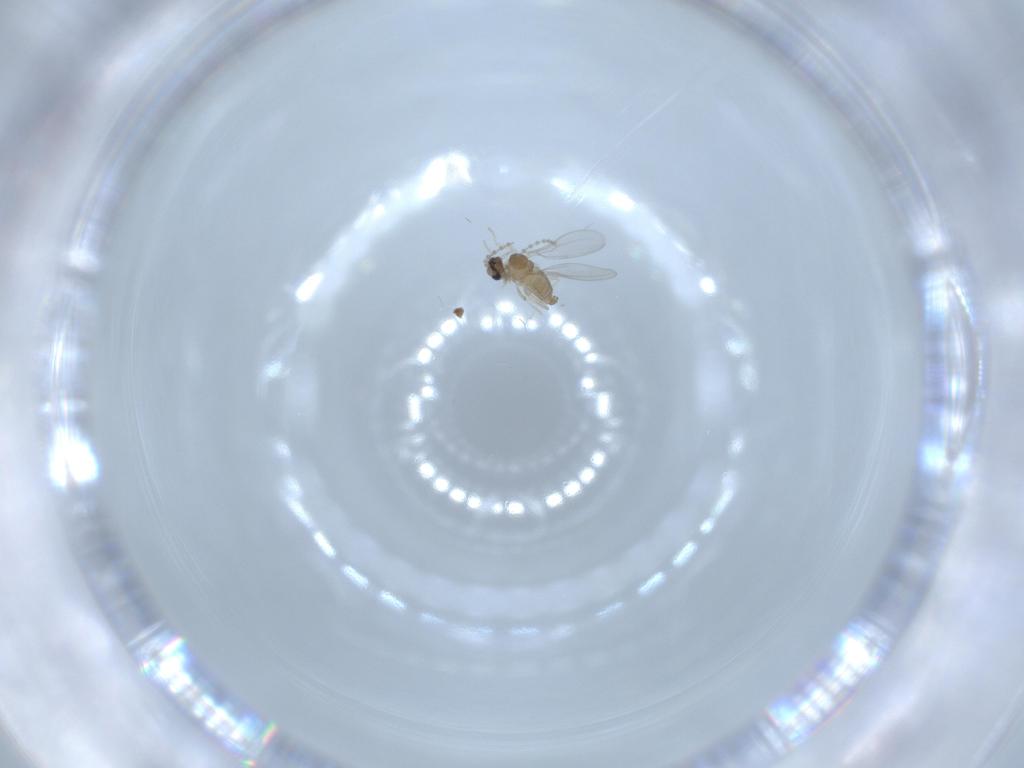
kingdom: Animalia
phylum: Arthropoda
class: Insecta
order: Diptera
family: Cecidomyiidae
